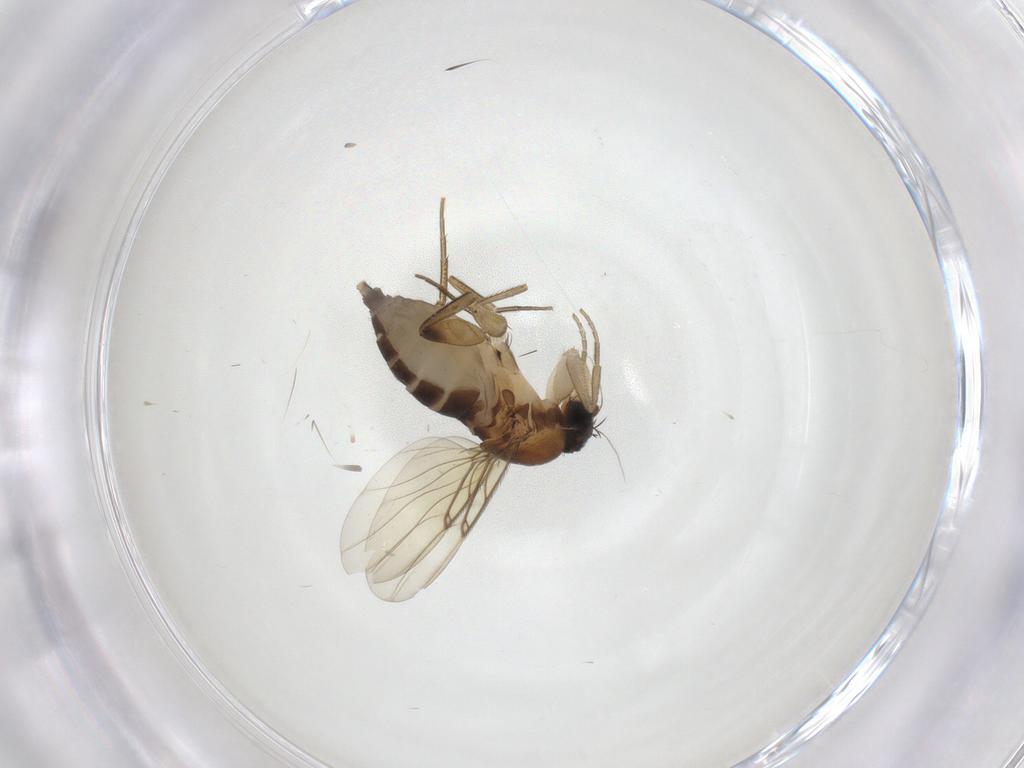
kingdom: Animalia
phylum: Arthropoda
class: Insecta
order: Diptera
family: Phoridae
